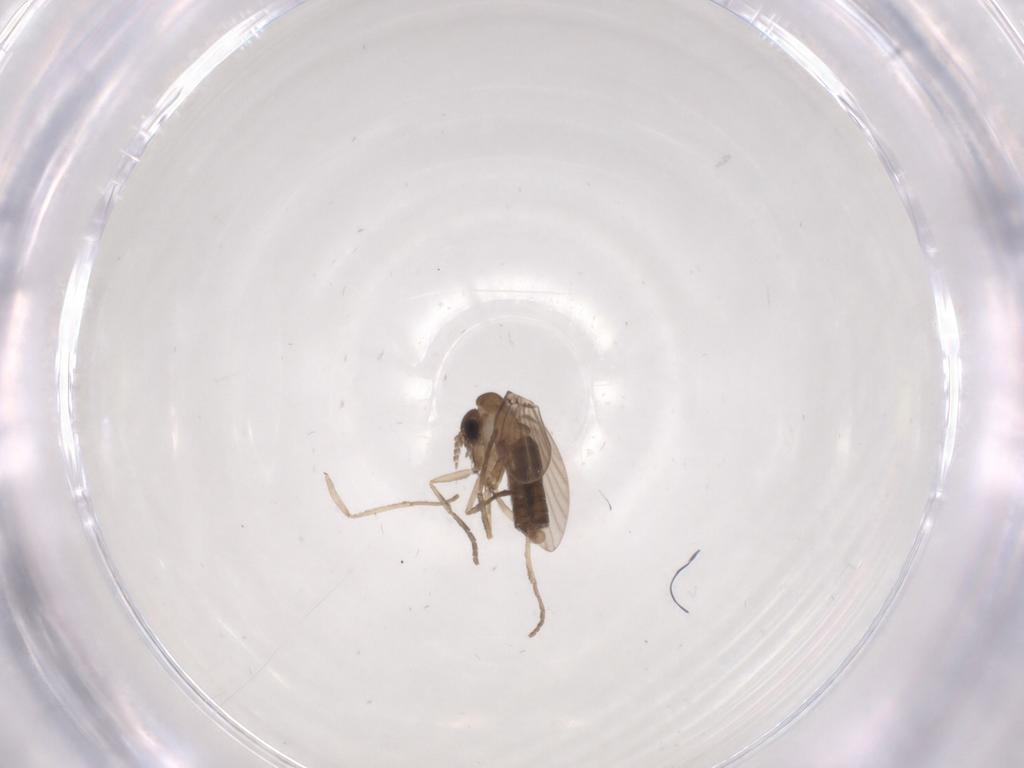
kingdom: Animalia
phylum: Arthropoda
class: Insecta
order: Diptera
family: Psychodidae
